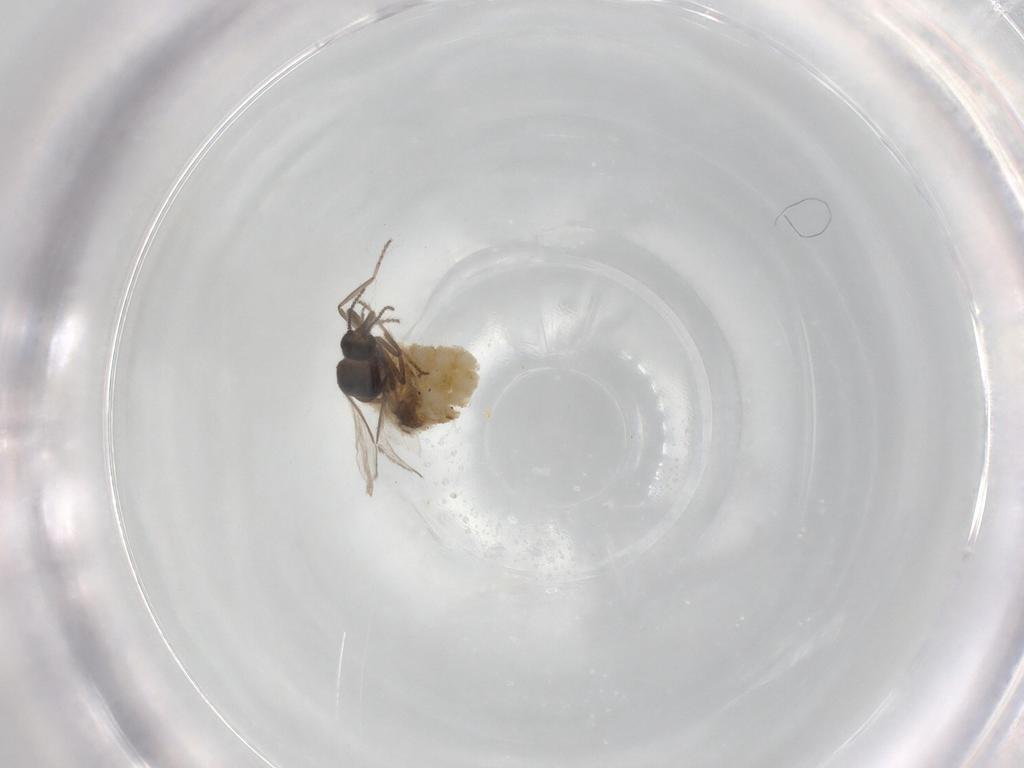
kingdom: Animalia
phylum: Arthropoda
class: Insecta
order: Diptera
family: Ceratopogonidae
